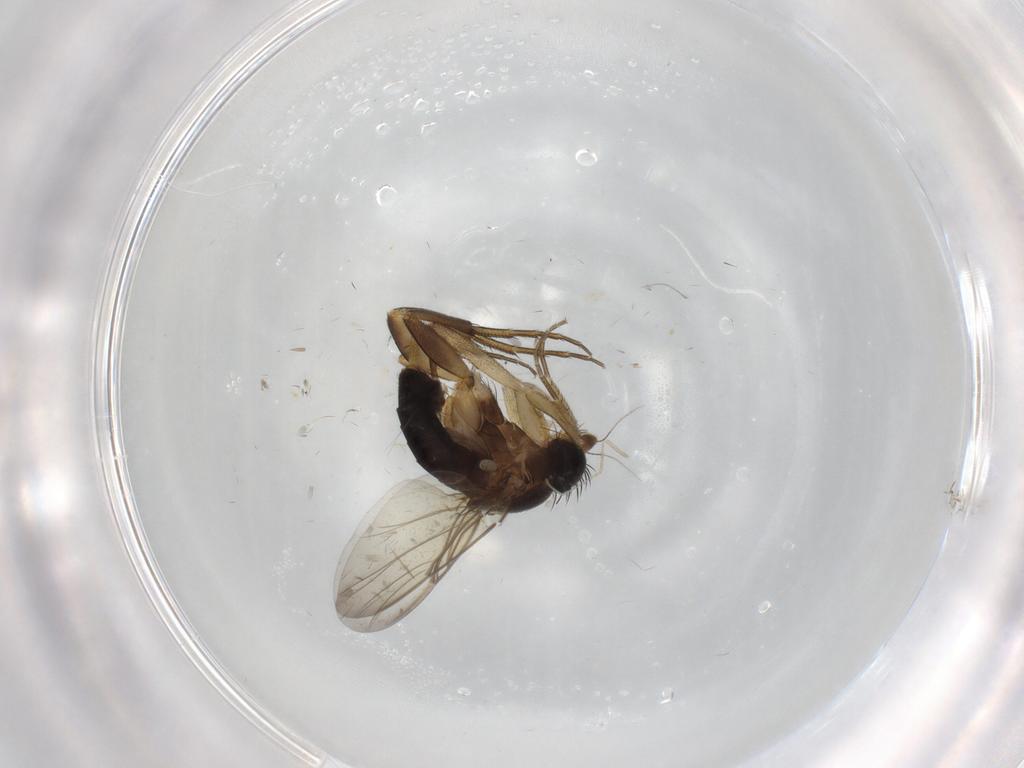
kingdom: Animalia
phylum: Arthropoda
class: Insecta
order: Diptera
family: Phoridae
